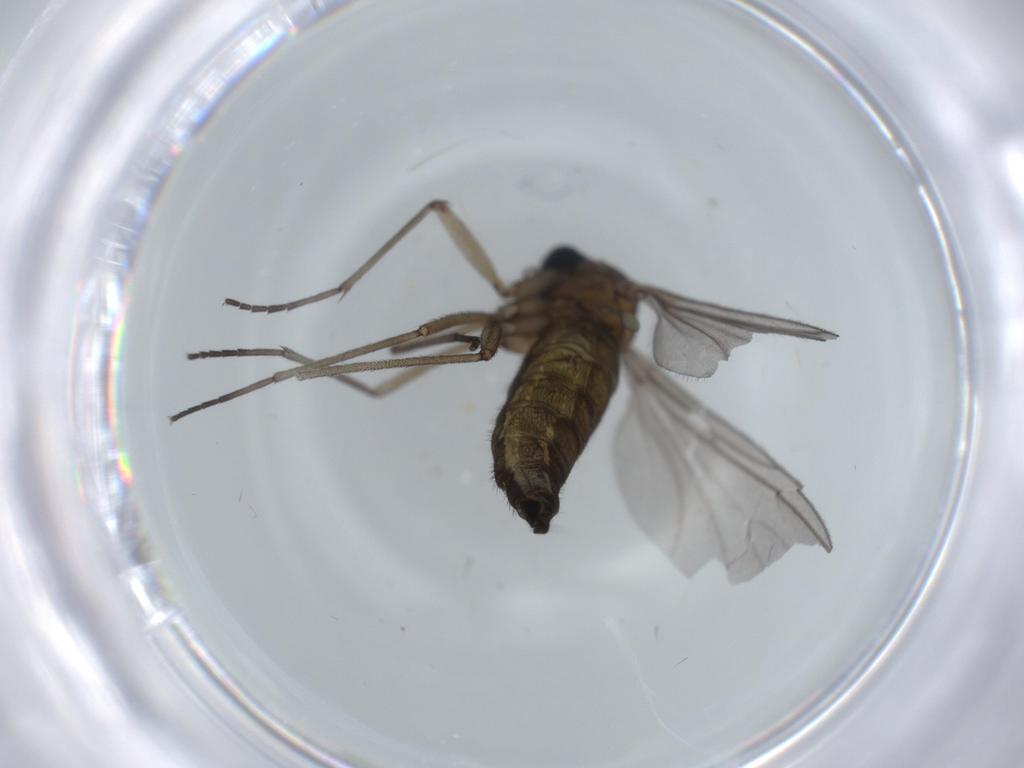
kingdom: Animalia
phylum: Arthropoda
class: Insecta
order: Diptera
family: Sciaridae
